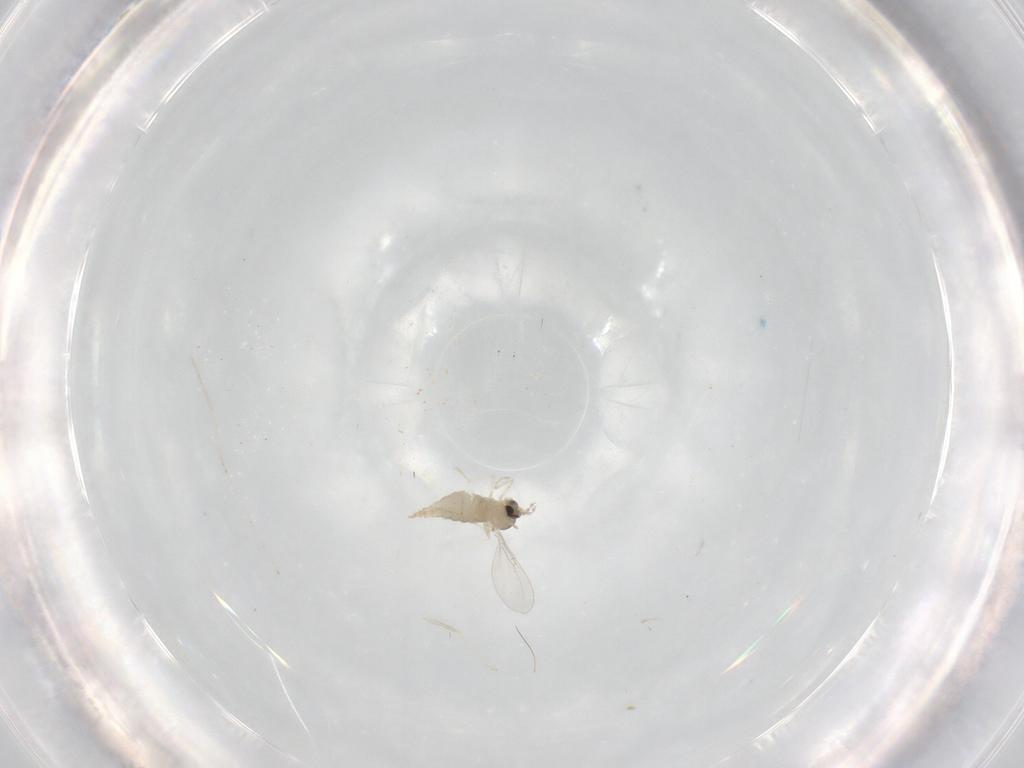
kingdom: Animalia
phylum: Arthropoda
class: Insecta
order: Diptera
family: Cecidomyiidae
